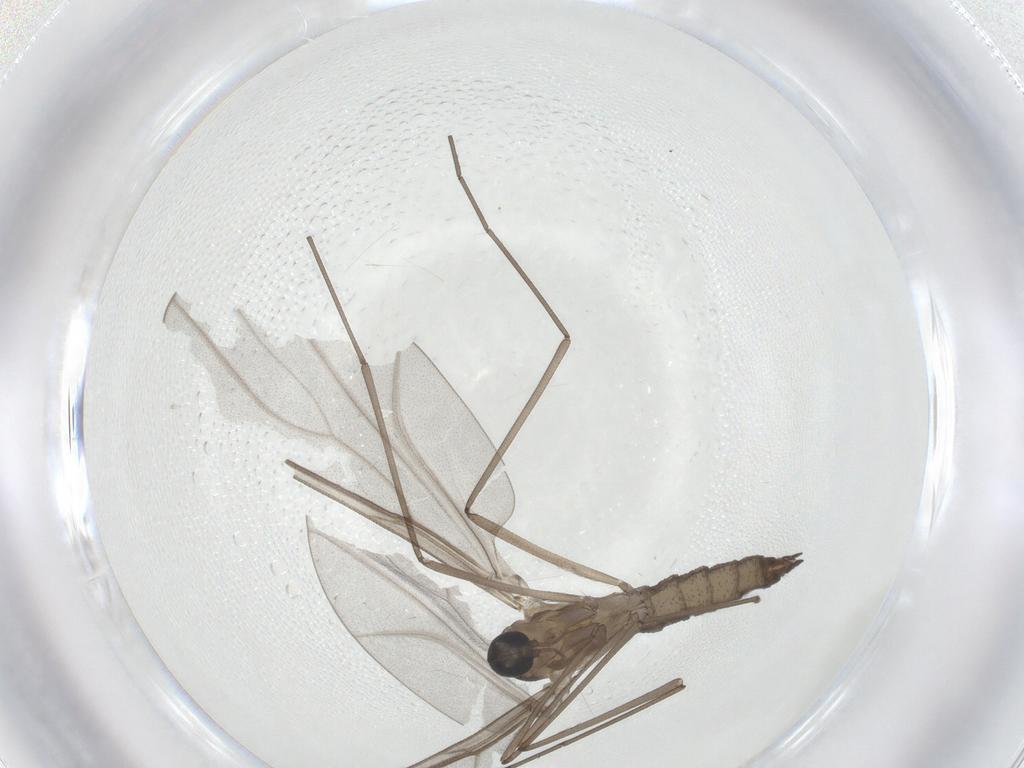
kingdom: Animalia
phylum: Arthropoda
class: Insecta
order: Diptera
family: Cecidomyiidae
